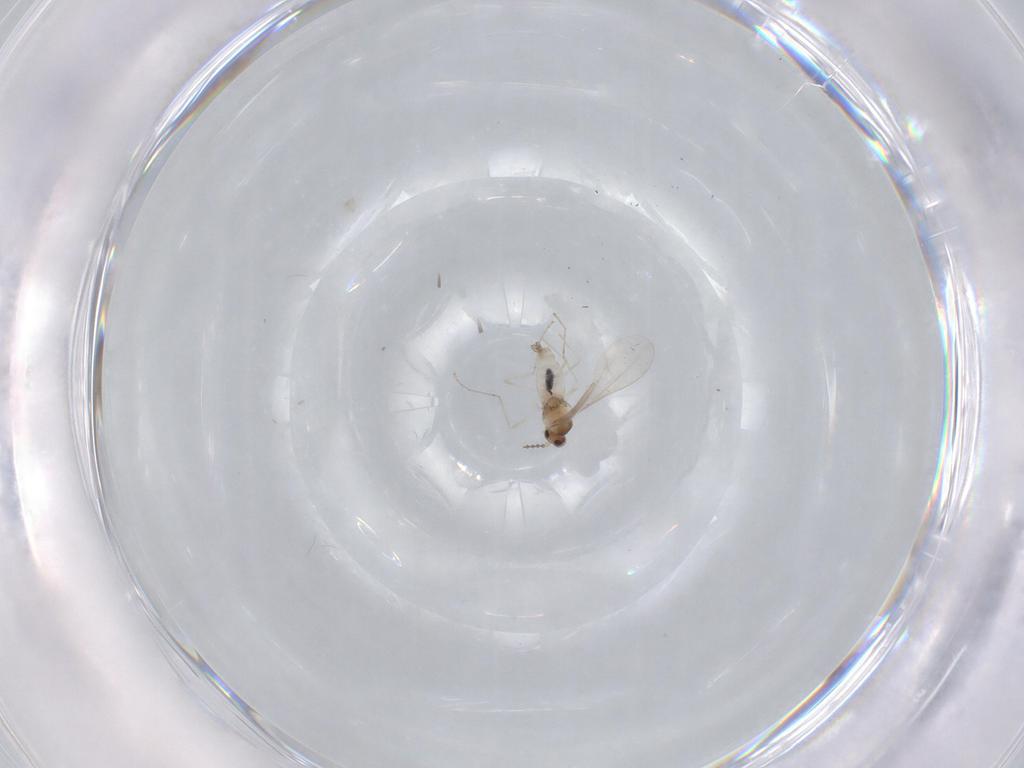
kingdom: Animalia
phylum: Arthropoda
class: Insecta
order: Diptera
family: Cecidomyiidae
